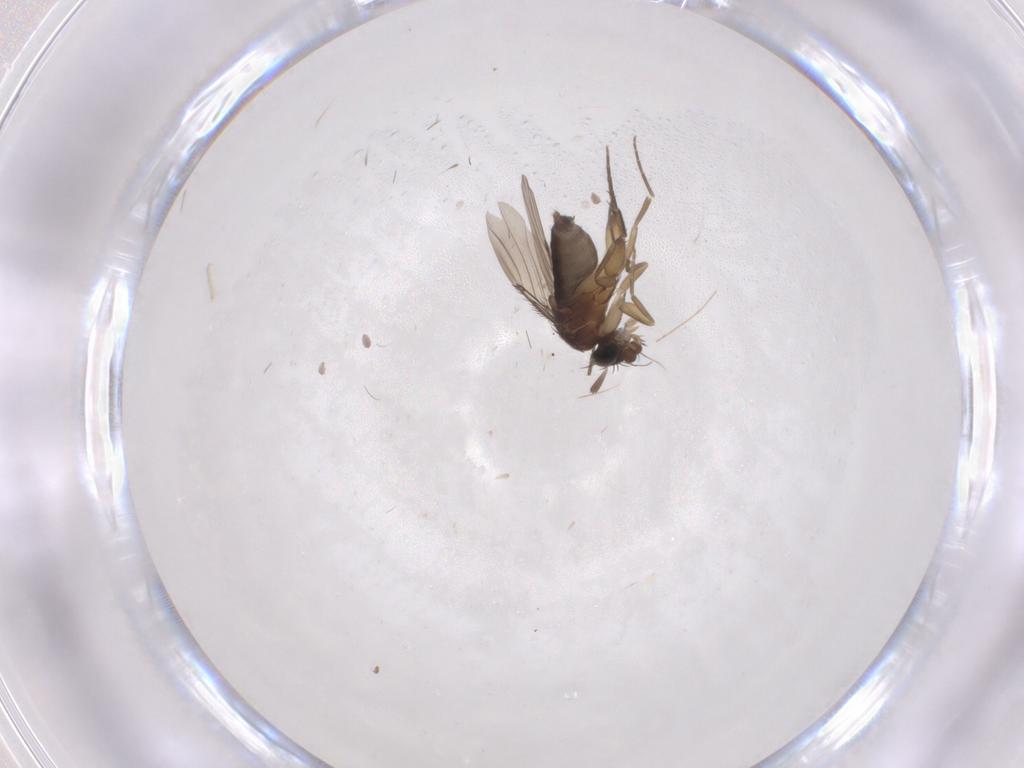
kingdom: Animalia
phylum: Arthropoda
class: Insecta
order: Diptera
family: Phoridae
